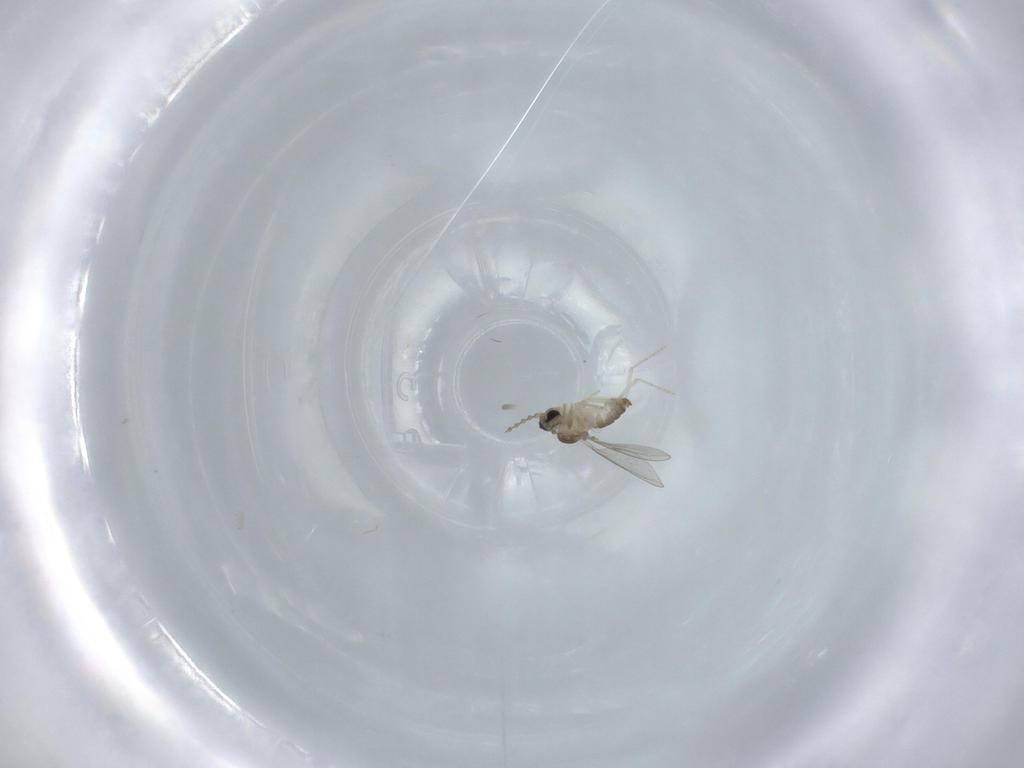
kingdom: Animalia
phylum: Arthropoda
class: Insecta
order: Diptera
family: Cecidomyiidae
